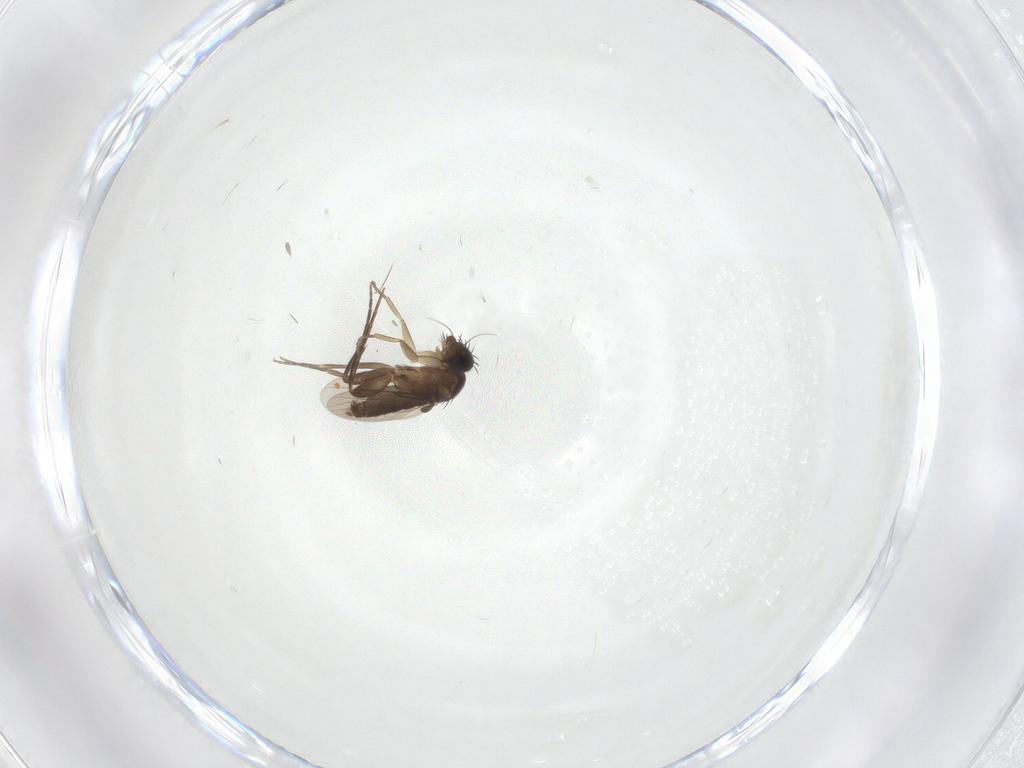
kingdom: Animalia
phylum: Arthropoda
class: Insecta
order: Diptera
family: Phoridae
